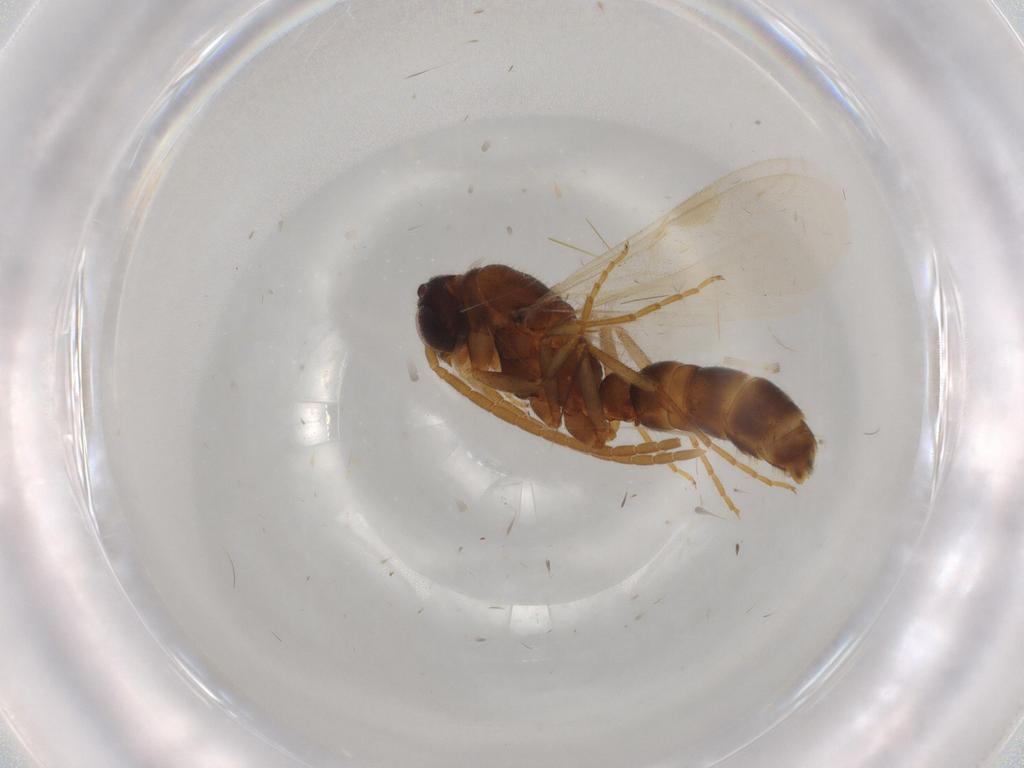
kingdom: Animalia
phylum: Arthropoda
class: Insecta
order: Hymenoptera
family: Formicidae
